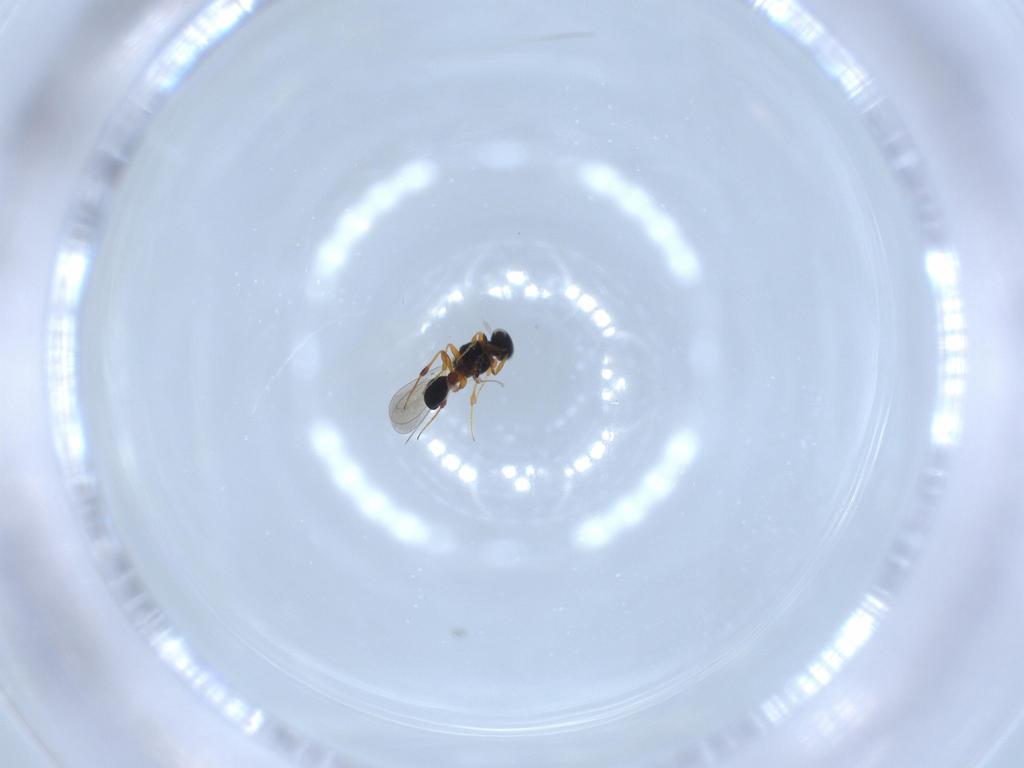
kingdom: Animalia
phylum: Arthropoda
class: Insecta
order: Hymenoptera
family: Platygastridae
